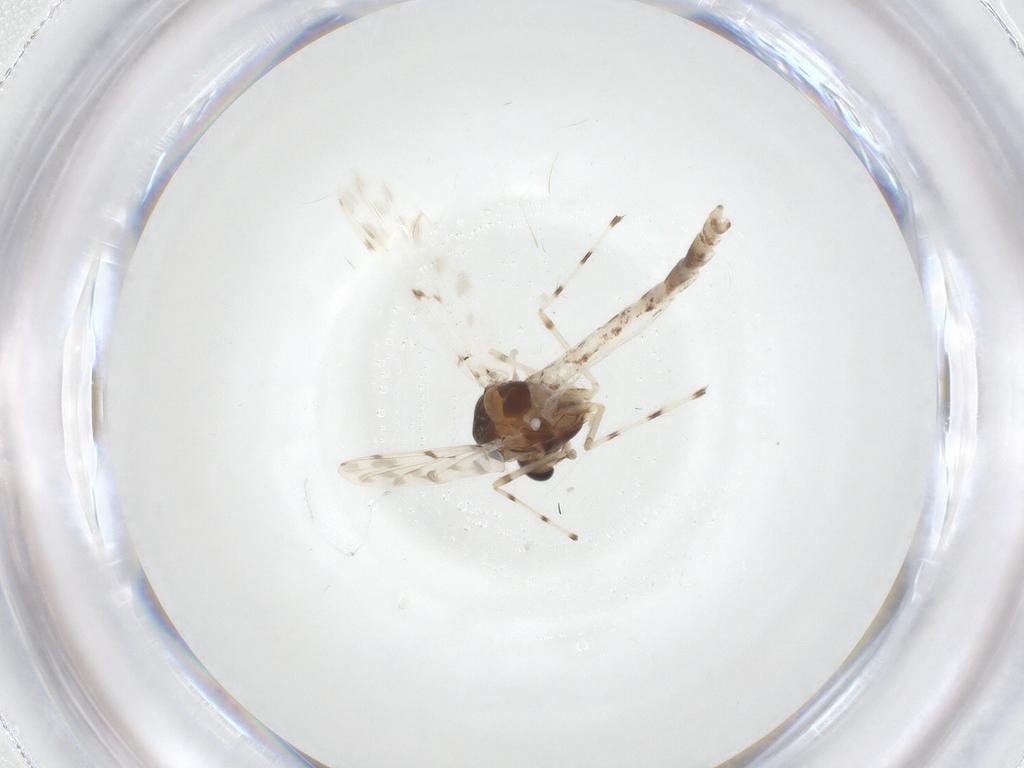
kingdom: Animalia
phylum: Arthropoda
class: Insecta
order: Diptera
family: Chironomidae
